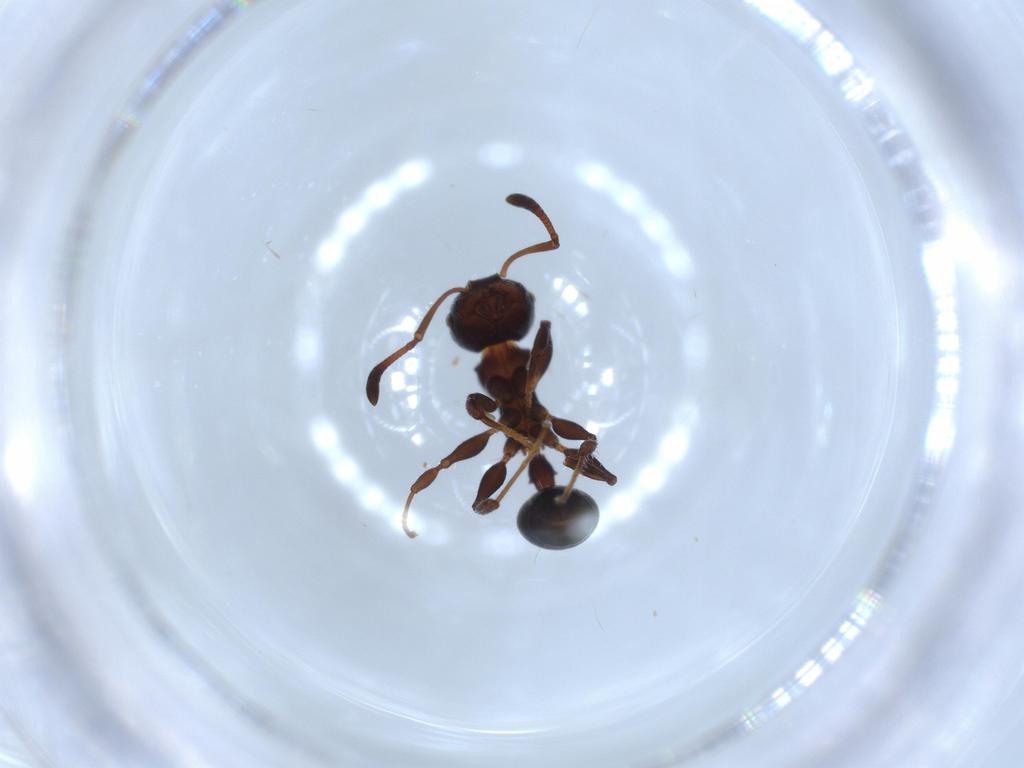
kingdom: Animalia
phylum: Arthropoda
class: Insecta
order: Hymenoptera
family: Formicidae
